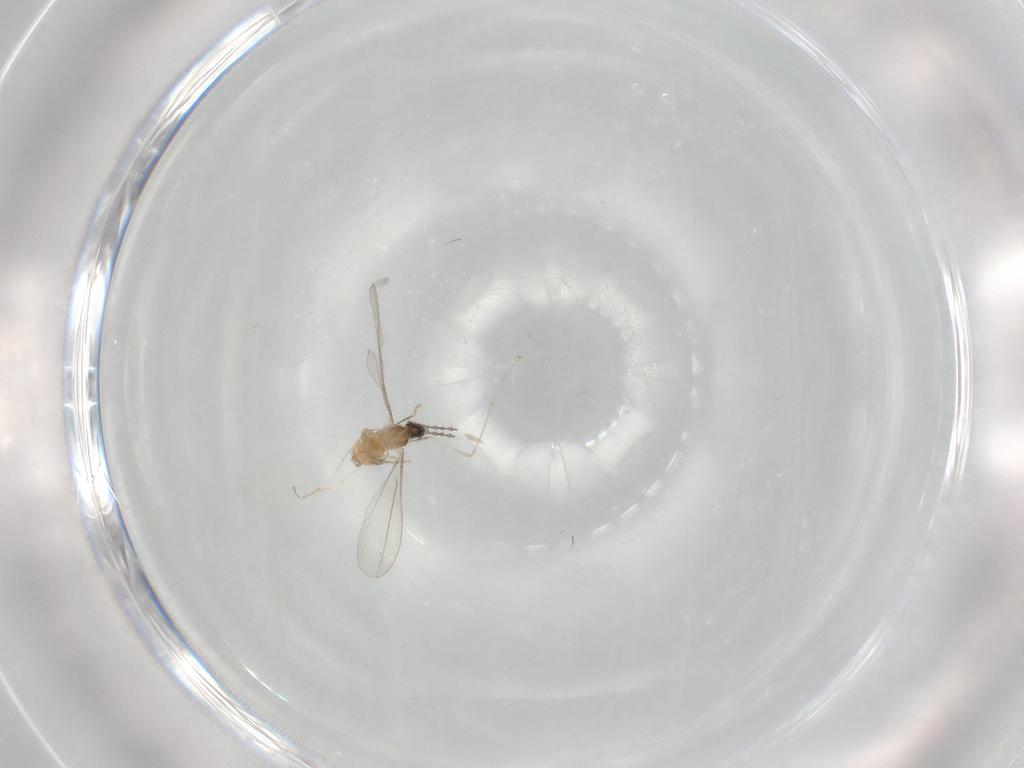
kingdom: Animalia
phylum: Arthropoda
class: Insecta
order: Diptera
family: Cecidomyiidae
